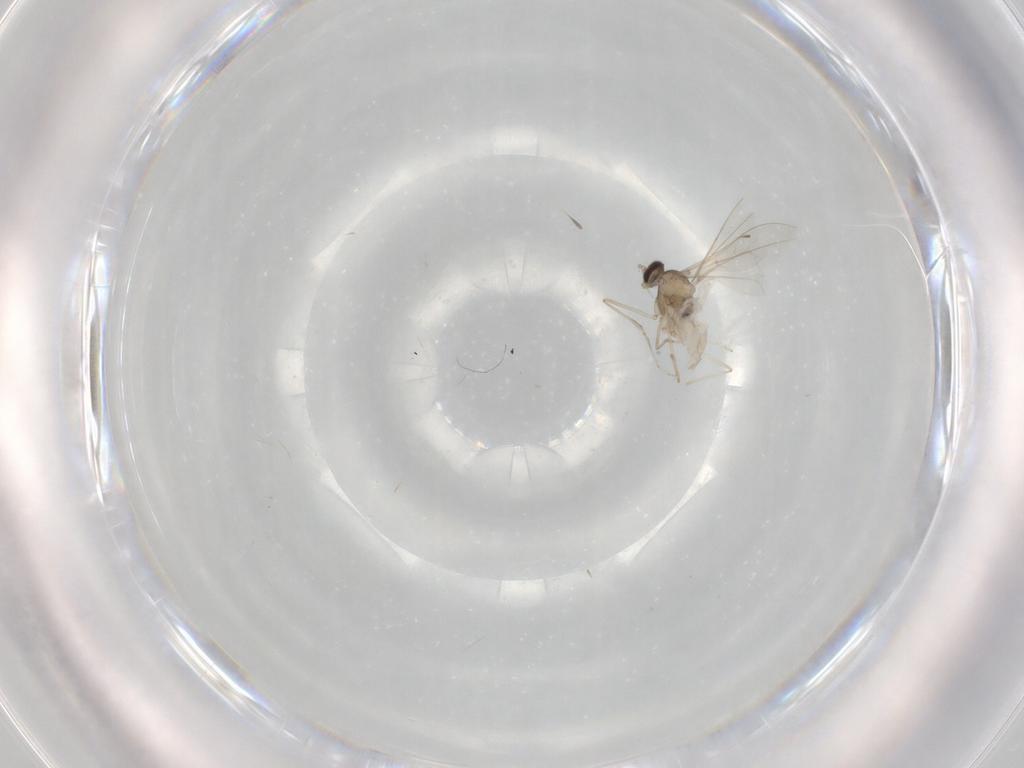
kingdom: Animalia
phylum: Arthropoda
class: Insecta
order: Diptera
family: Cecidomyiidae
